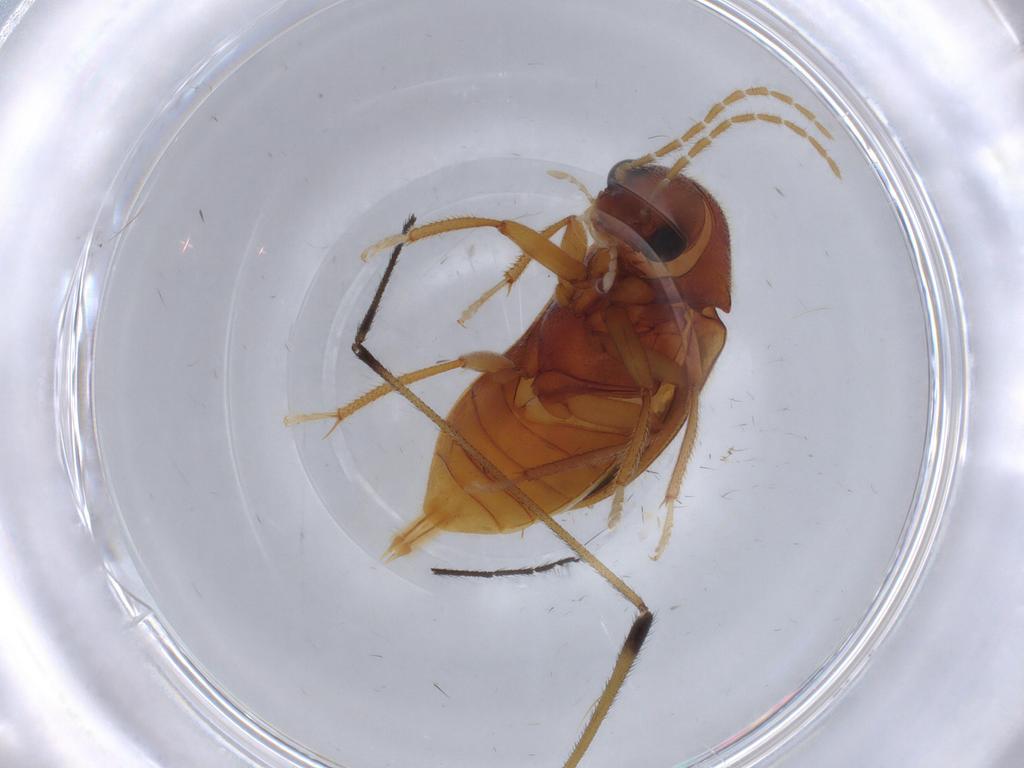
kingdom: Animalia
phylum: Arthropoda
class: Insecta
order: Coleoptera
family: Ptilodactylidae
